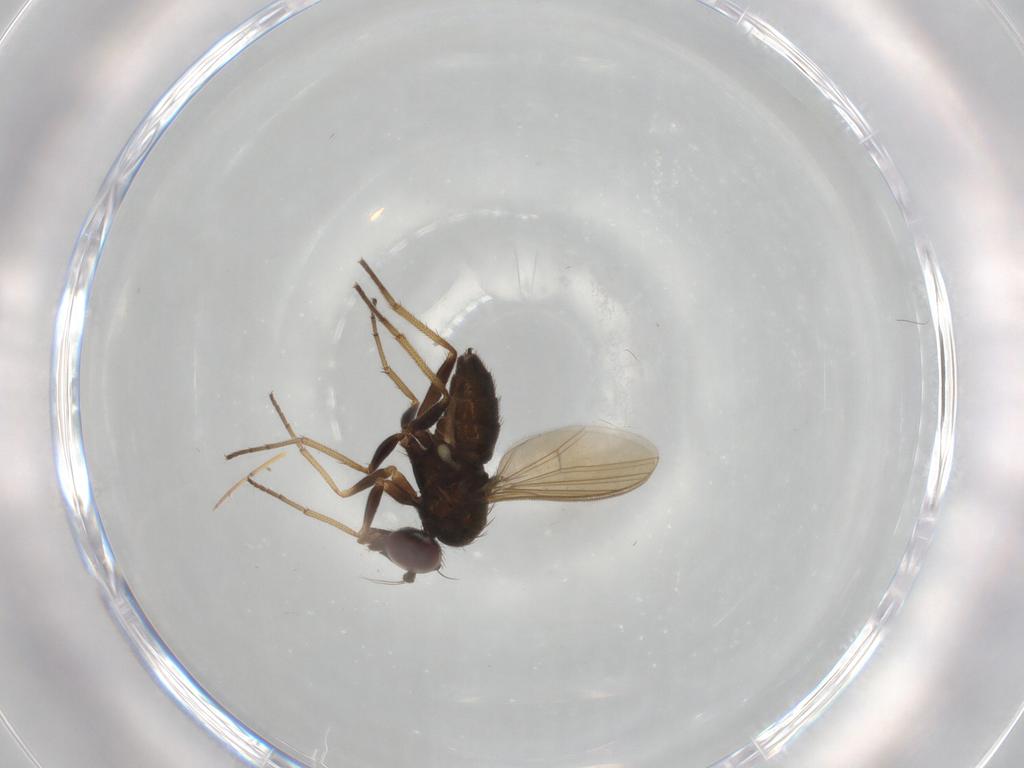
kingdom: Animalia
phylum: Arthropoda
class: Insecta
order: Diptera
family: Dolichopodidae
